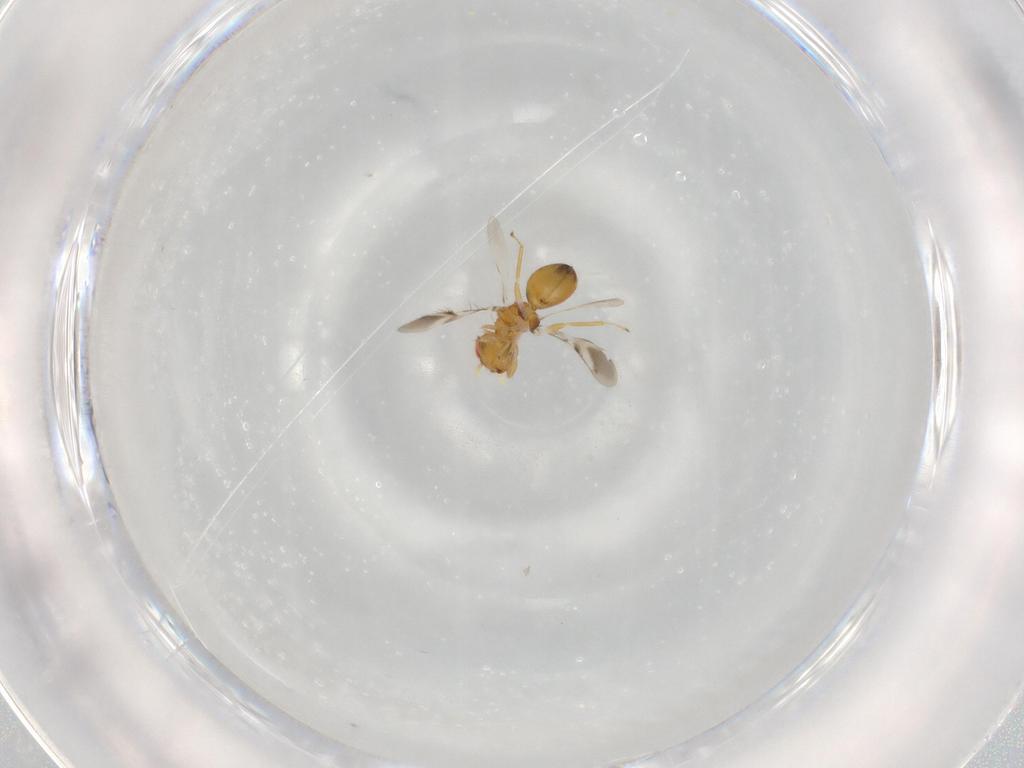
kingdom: Animalia
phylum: Arthropoda
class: Insecta
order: Hymenoptera
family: Eulophidae
